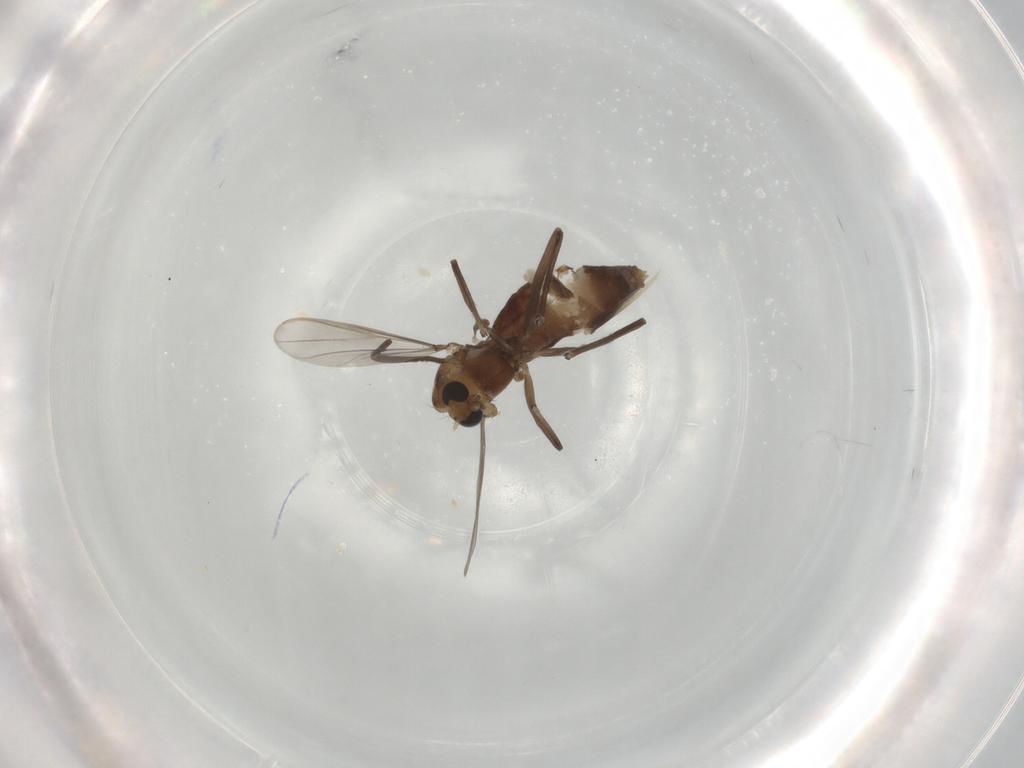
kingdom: Animalia
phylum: Arthropoda
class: Insecta
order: Diptera
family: Chironomidae
